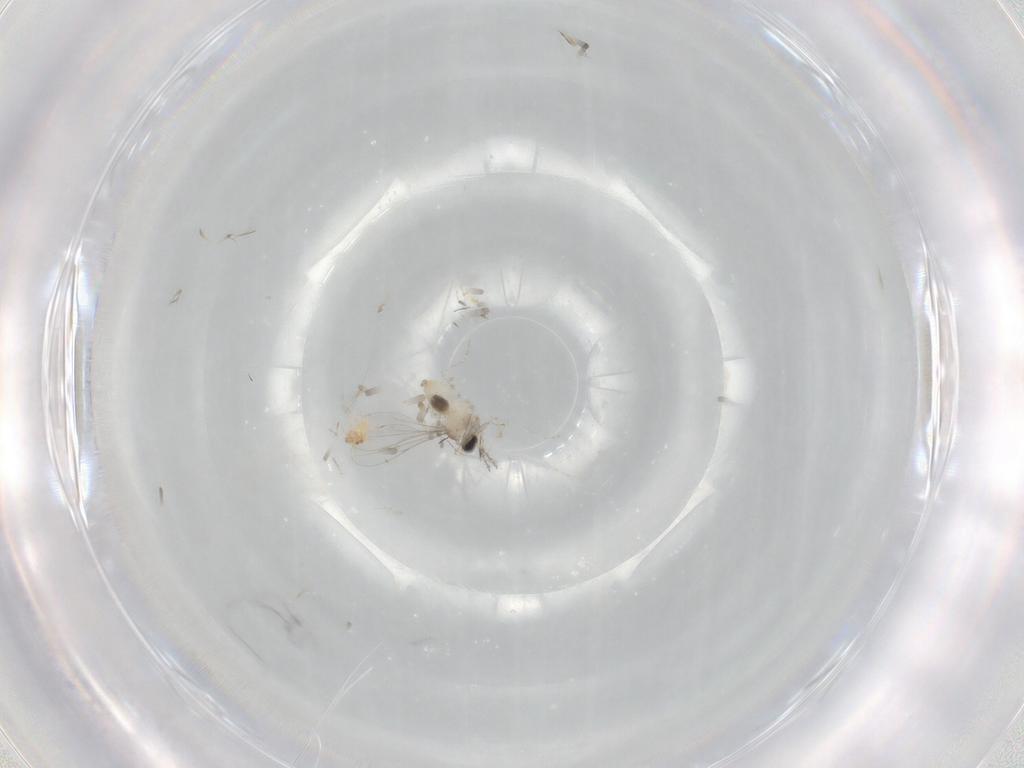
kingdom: Animalia
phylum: Arthropoda
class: Insecta
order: Diptera
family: Cecidomyiidae
